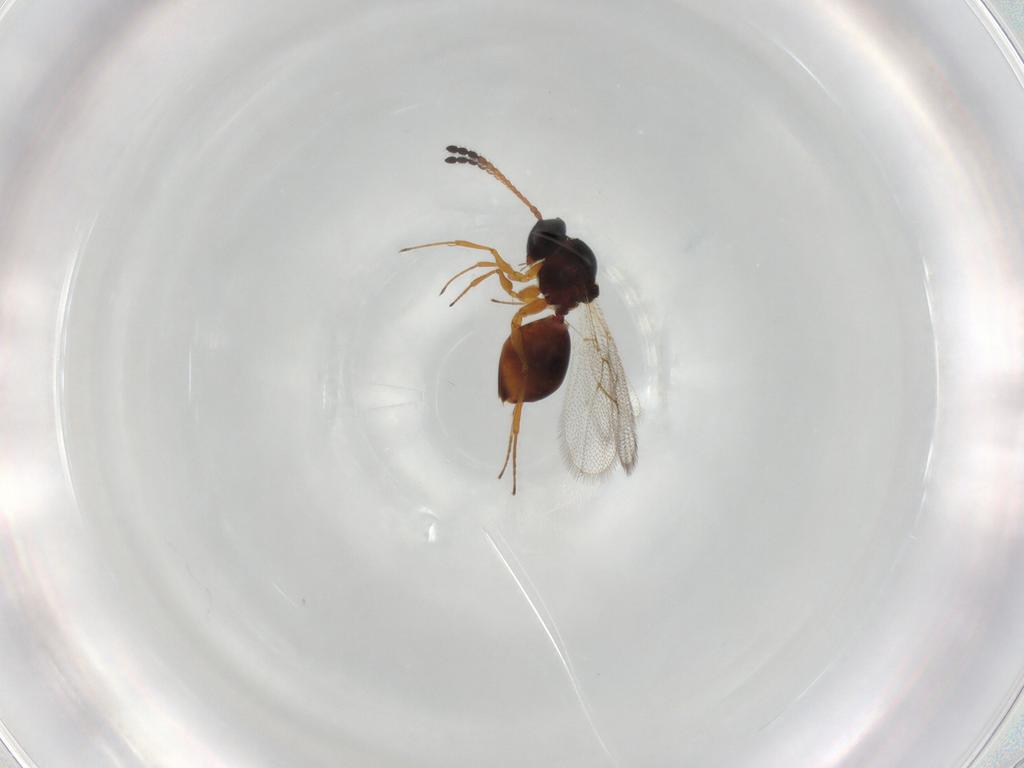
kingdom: Animalia
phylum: Arthropoda
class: Insecta
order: Hymenoptera
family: Figitidae
